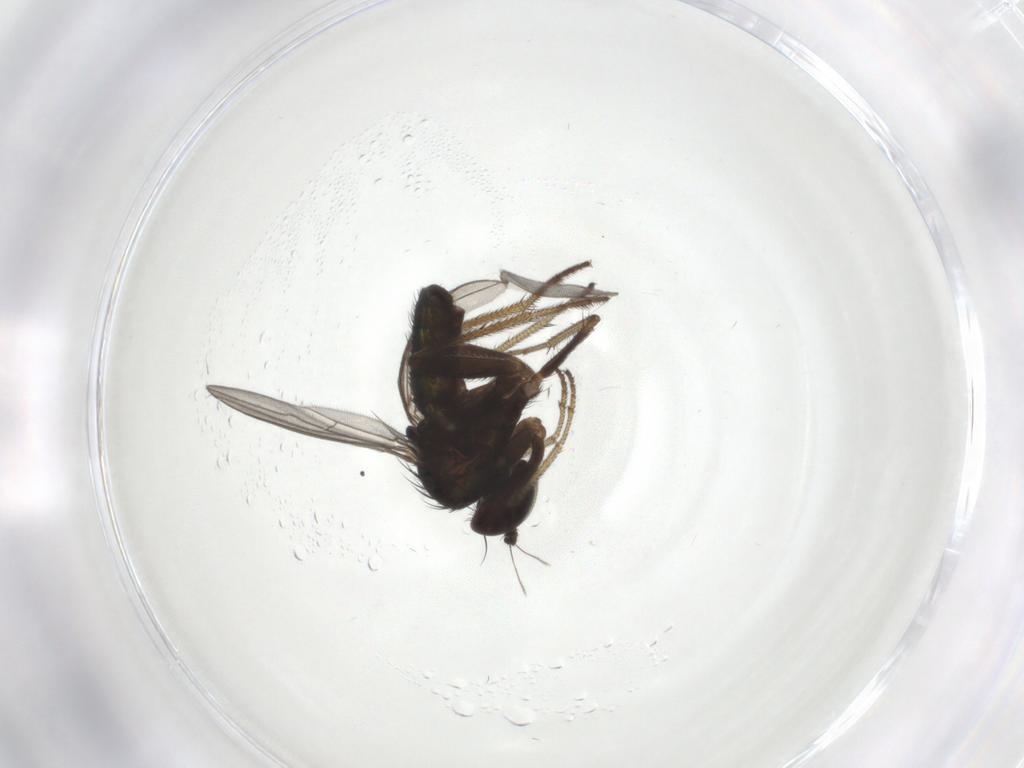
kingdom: Animalia
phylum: Arthropoda
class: Insecta
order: Diptera
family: Dolichopodidae
